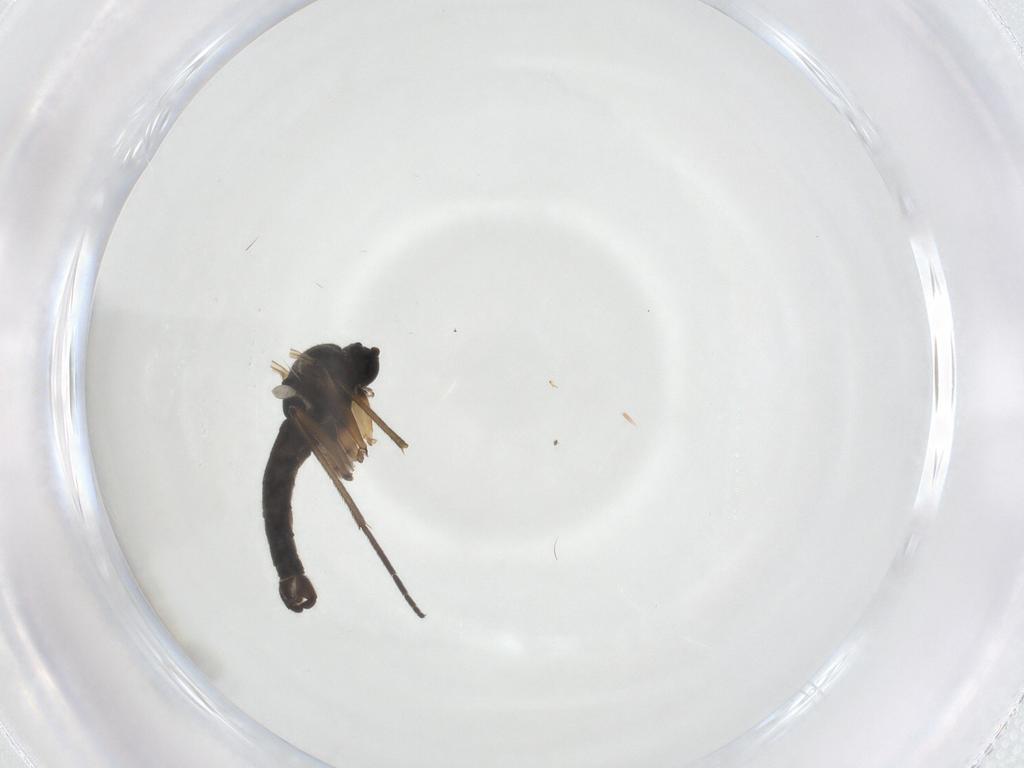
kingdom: Animalia
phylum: Arthropoda
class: Insecta
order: Diptera
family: Sciaridae
